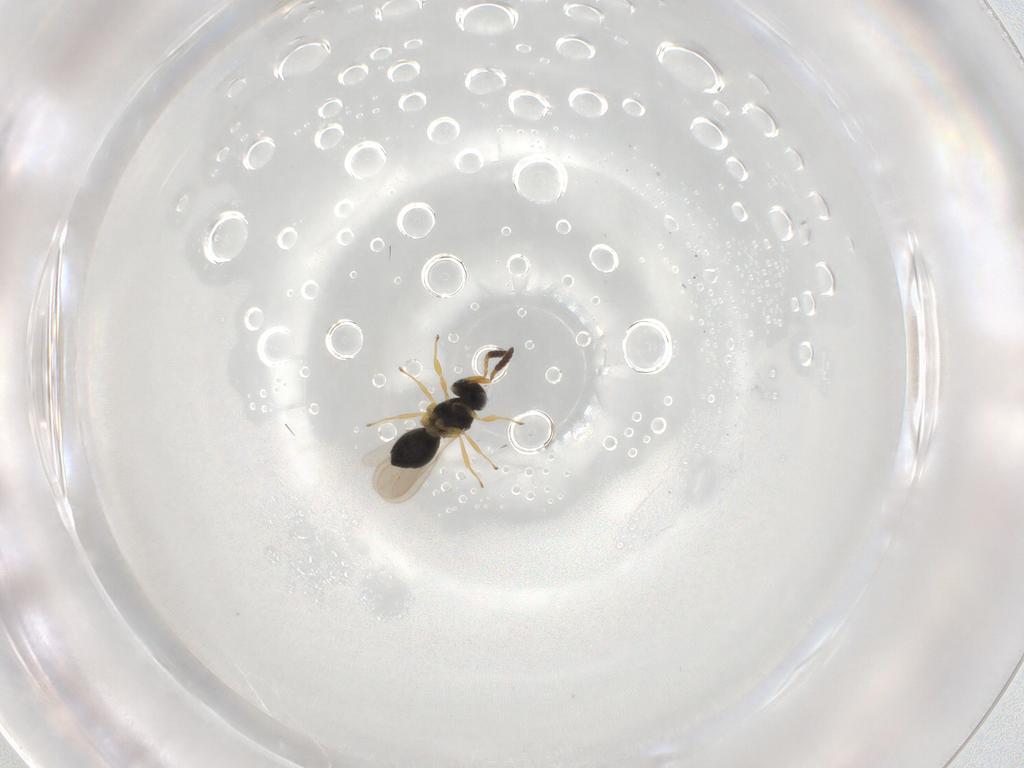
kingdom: Animalia
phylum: Arthropoda
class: Insecta
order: Hymenoptera
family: Scelionidae
